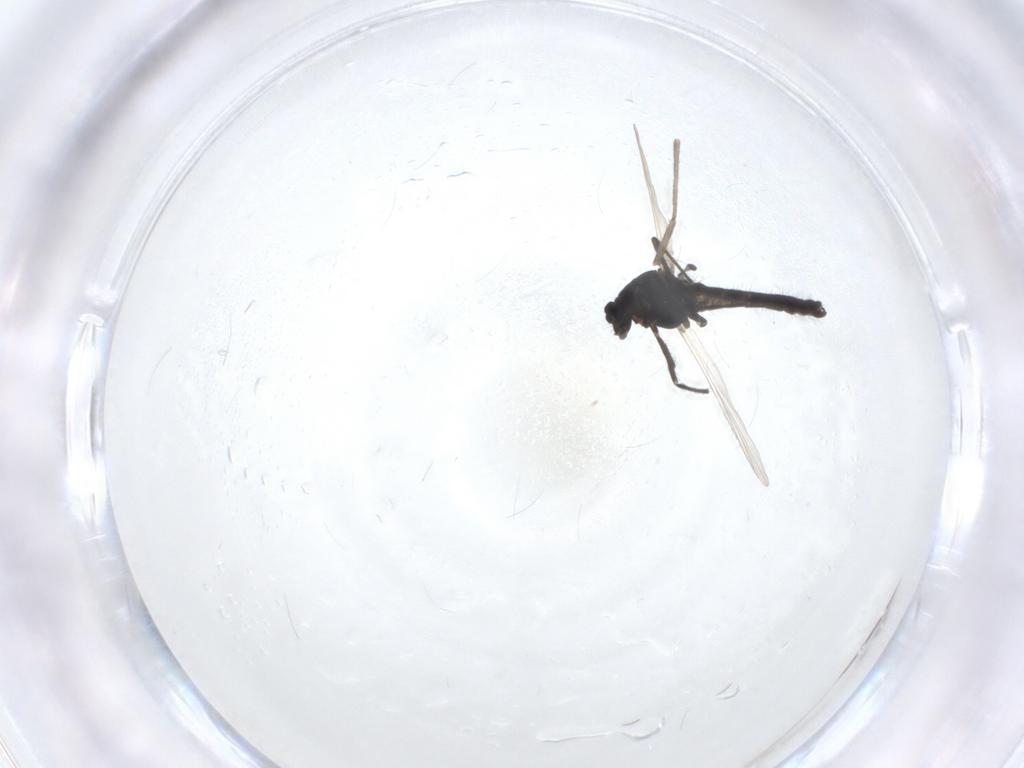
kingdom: Animalia
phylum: Arthropoda
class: Insecta
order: Diptera
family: Cecidomyiidae
